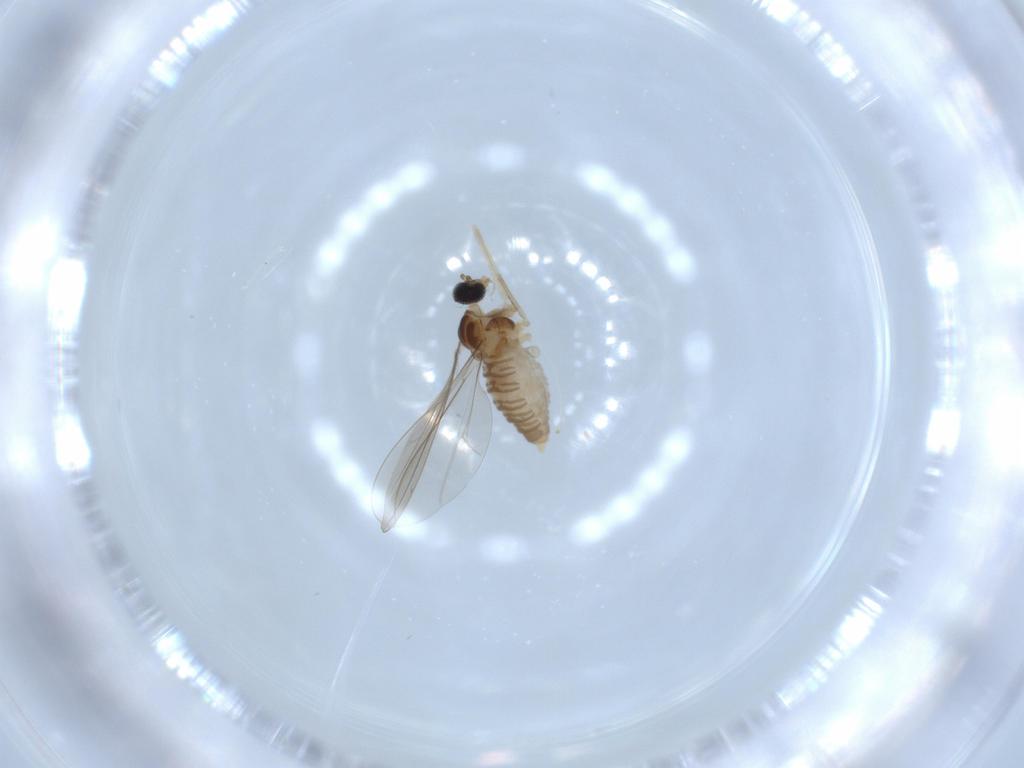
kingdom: Animalia
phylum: Arthropoda
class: Insecta
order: Diptera
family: Cecidomyiidae
